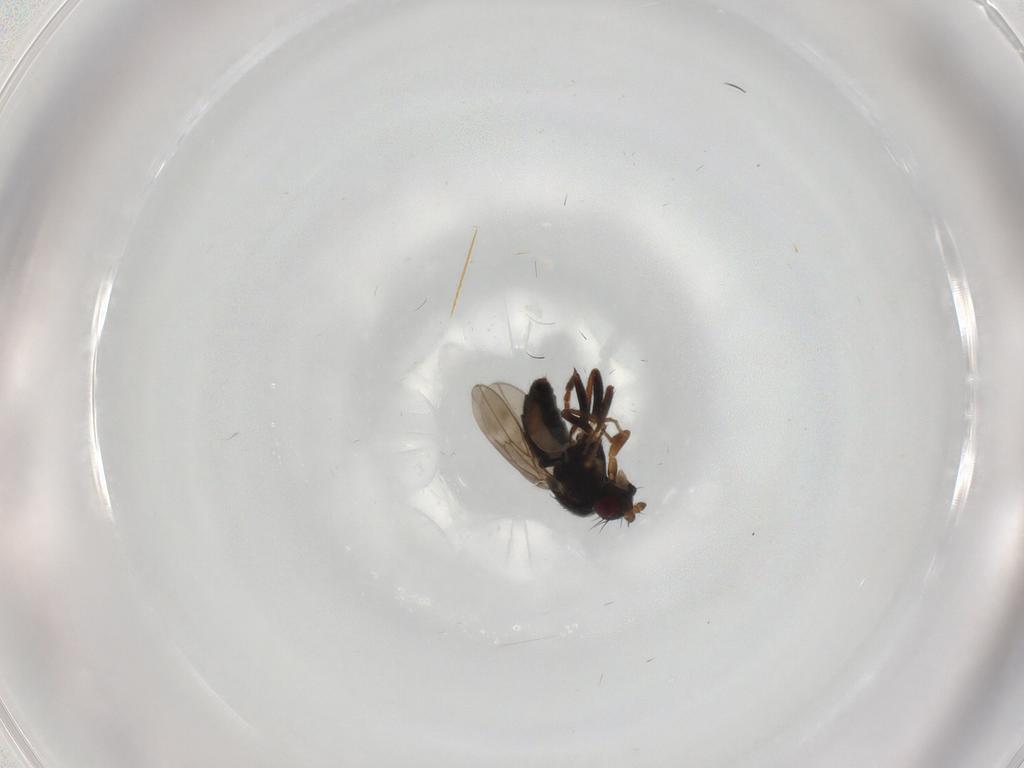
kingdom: Animalia
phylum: Arthropoda
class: Insecta
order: Diptera
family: Sphaeroceridae
